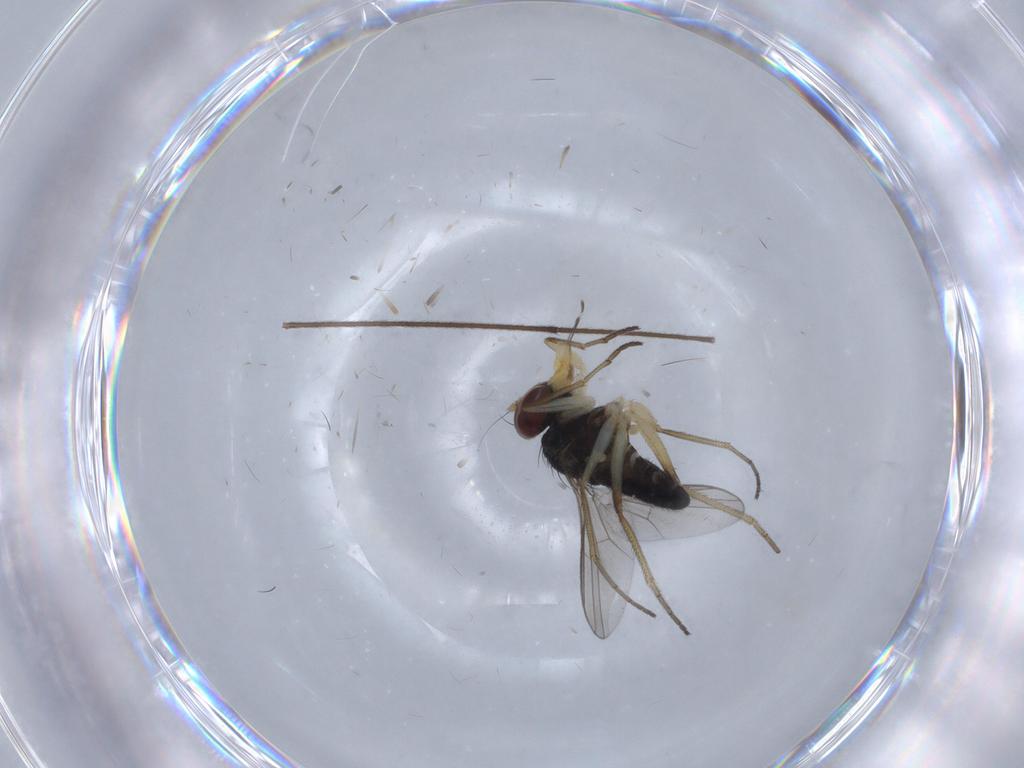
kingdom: Animalia
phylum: Arthropoda
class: Insecta
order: Diptera
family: Dolichopodidae
